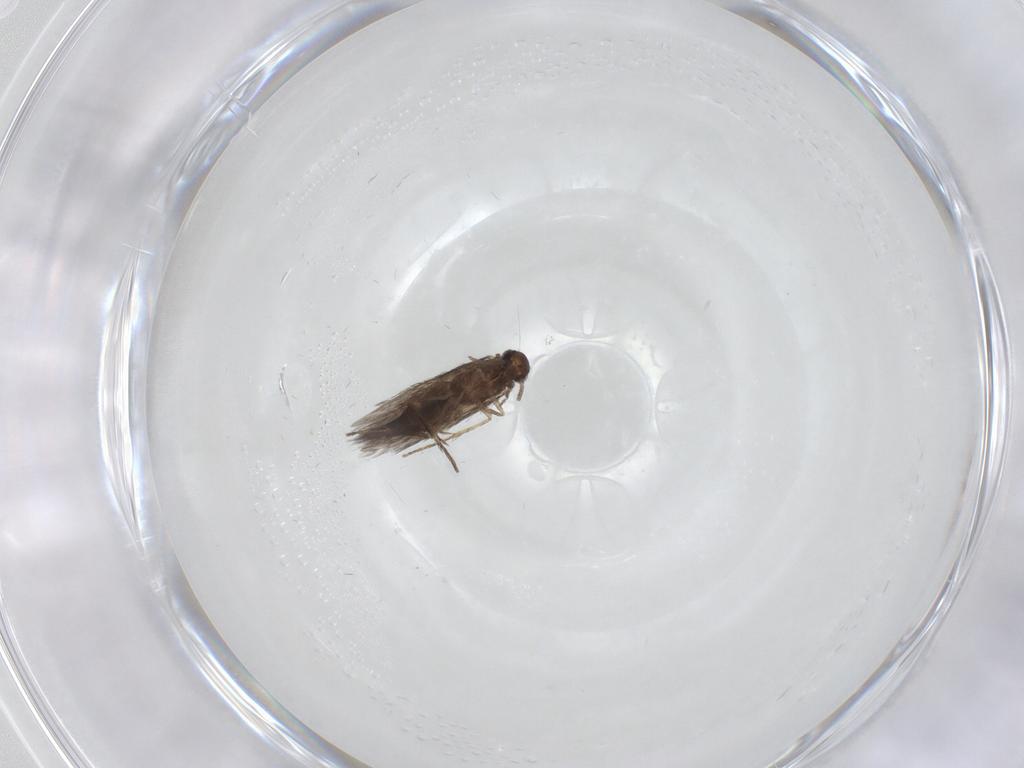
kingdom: Animalia
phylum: Arthropoda
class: Insecta
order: Trichoptera
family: Hydroptilidae
